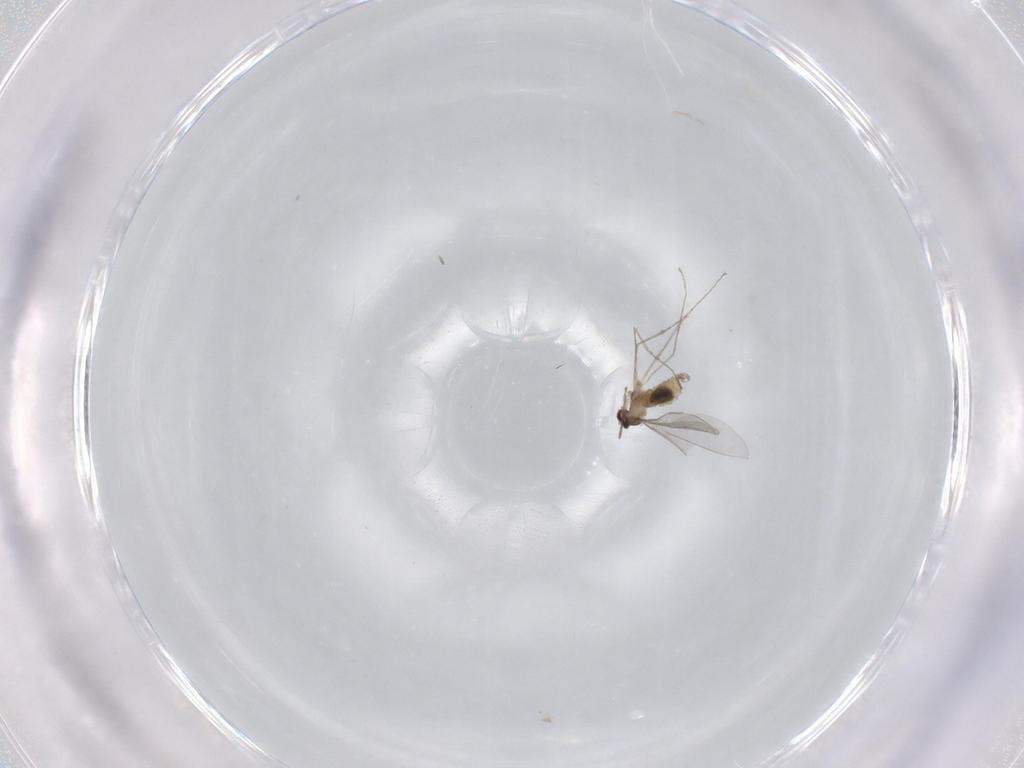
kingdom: Animalia
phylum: Arthropoda
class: Insecta
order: Diptera
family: Cecidomyiidae
